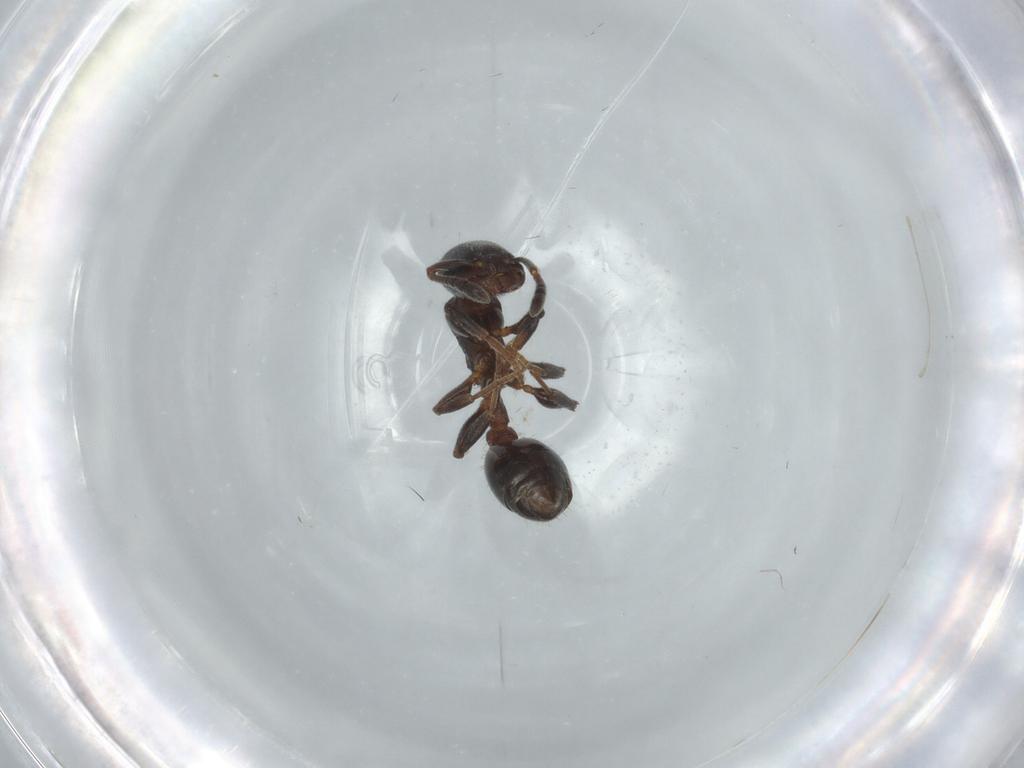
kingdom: Animalia
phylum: Arthropoda
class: Insecta
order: Hymenoptera
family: Formicidae
